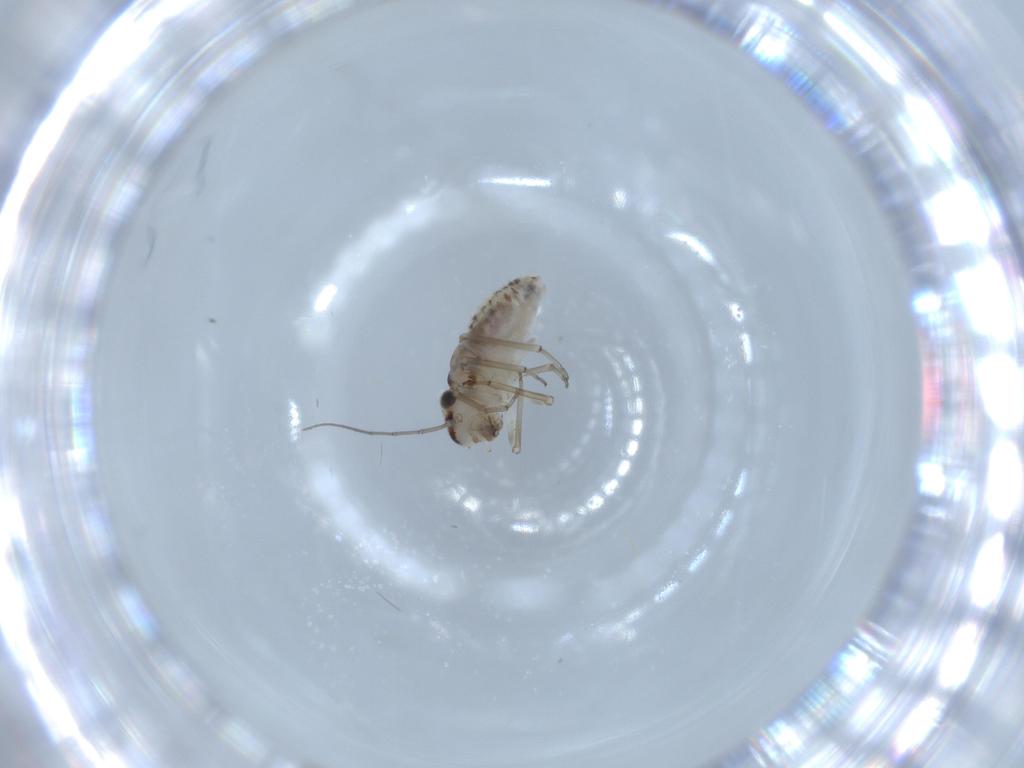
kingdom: Animalia
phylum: Arthropoda
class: Insecta
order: Psocodea
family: Psocidae
